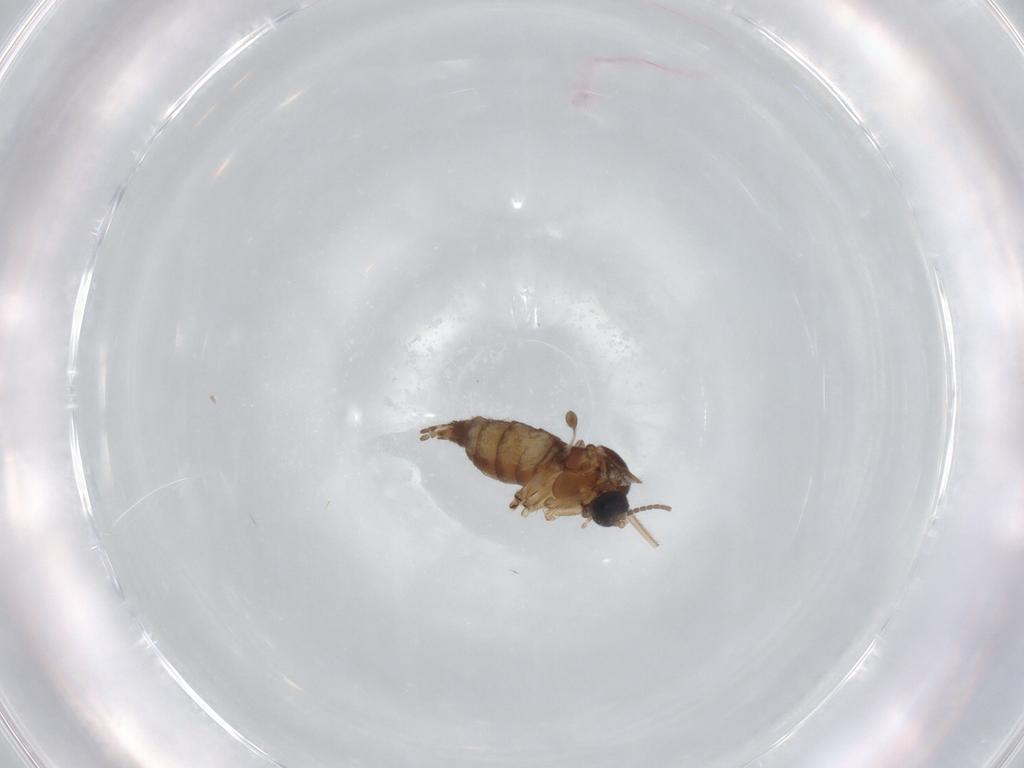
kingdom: Animalia
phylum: Arthropoda
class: Insecta
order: Diptera
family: Sciaridae
